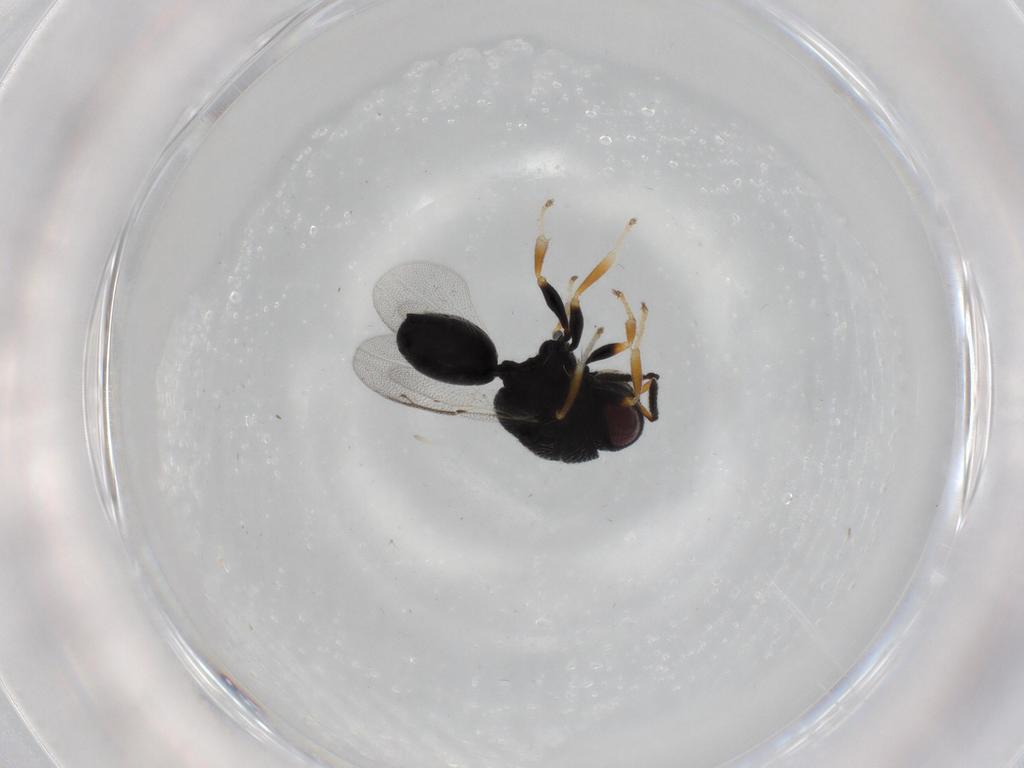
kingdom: Animalia
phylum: Arthropoda
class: Insecta
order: Hymenoptera
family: Eurytomidae
